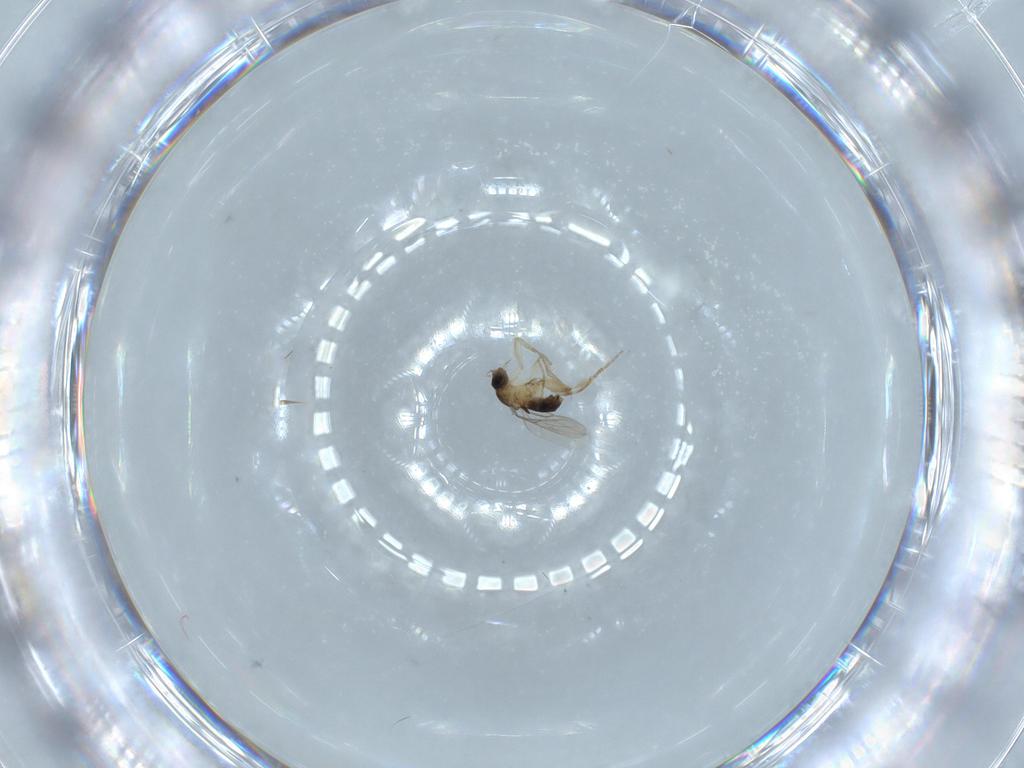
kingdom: Animalia
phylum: Arthropoda
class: Insecta
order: Diptera
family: Phoridae
